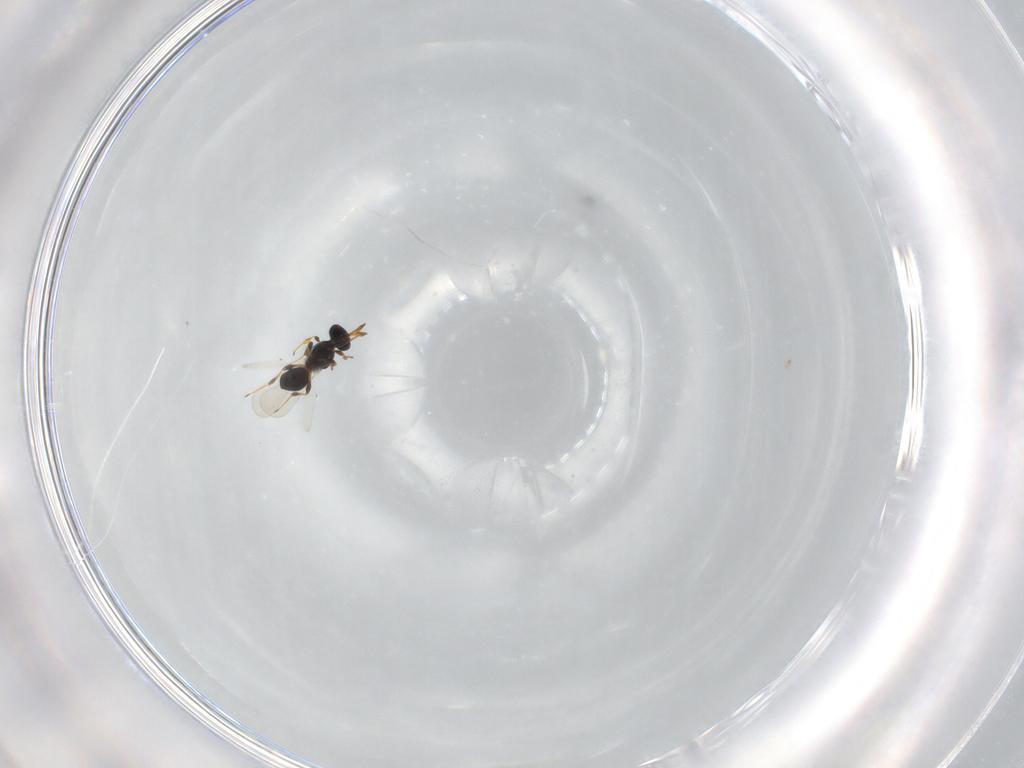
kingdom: Animalia
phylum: Arthropoda
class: Insecta
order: Hymenoptera
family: Platygastridae
